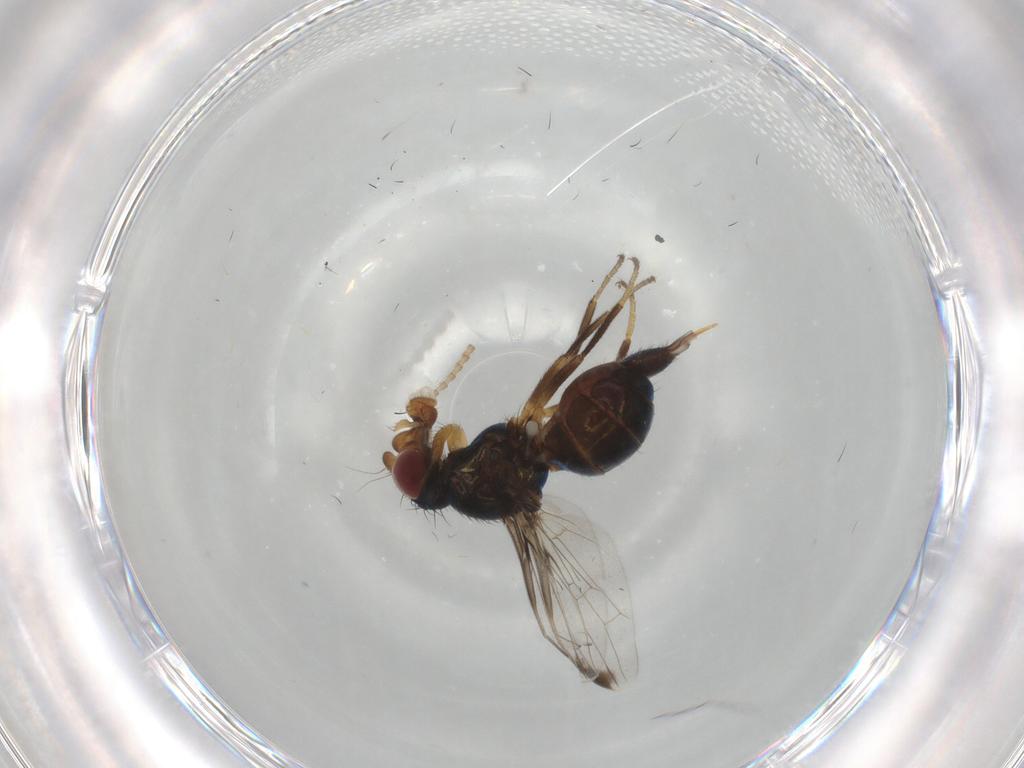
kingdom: Animalia
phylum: Arthropoda
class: Insecta
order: Diptera
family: Ulidiidae
